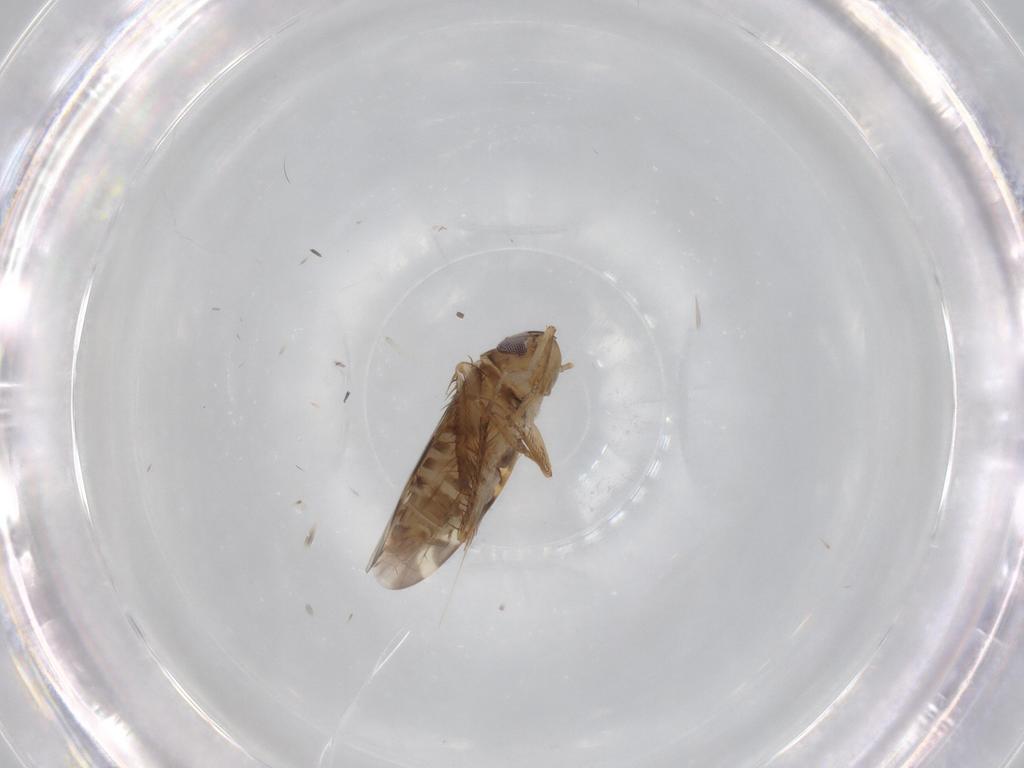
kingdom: Animalia
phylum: Arthropoda
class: Insecta
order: Hemiptera
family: Cicadellidae
